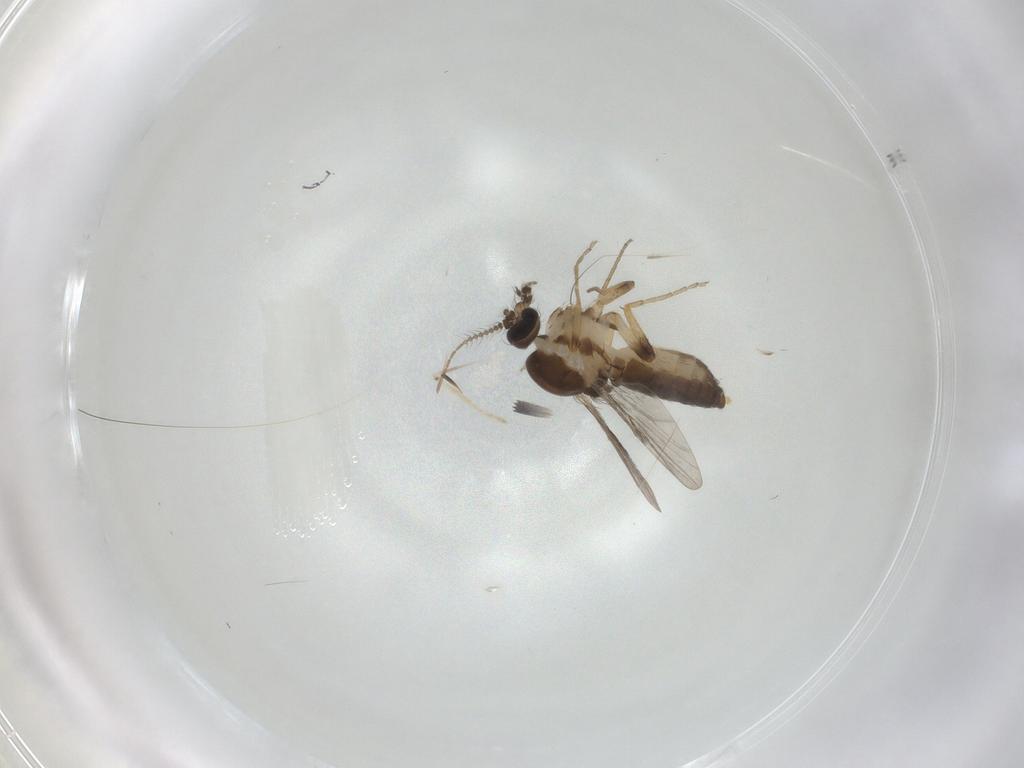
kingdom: Animalia
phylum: Arthropoda
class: Insecta
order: Diptera
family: Ceratopogonidae
